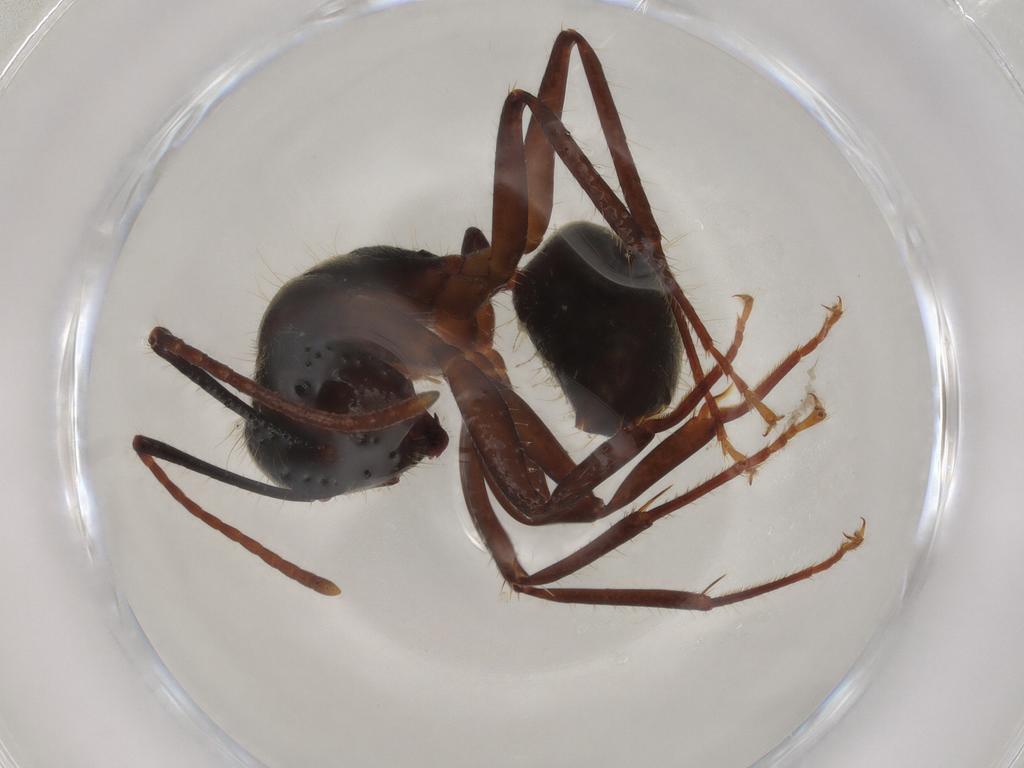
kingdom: Animalia
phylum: Arthropoda
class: Insecta
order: Hymenoptera
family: Formicidae
